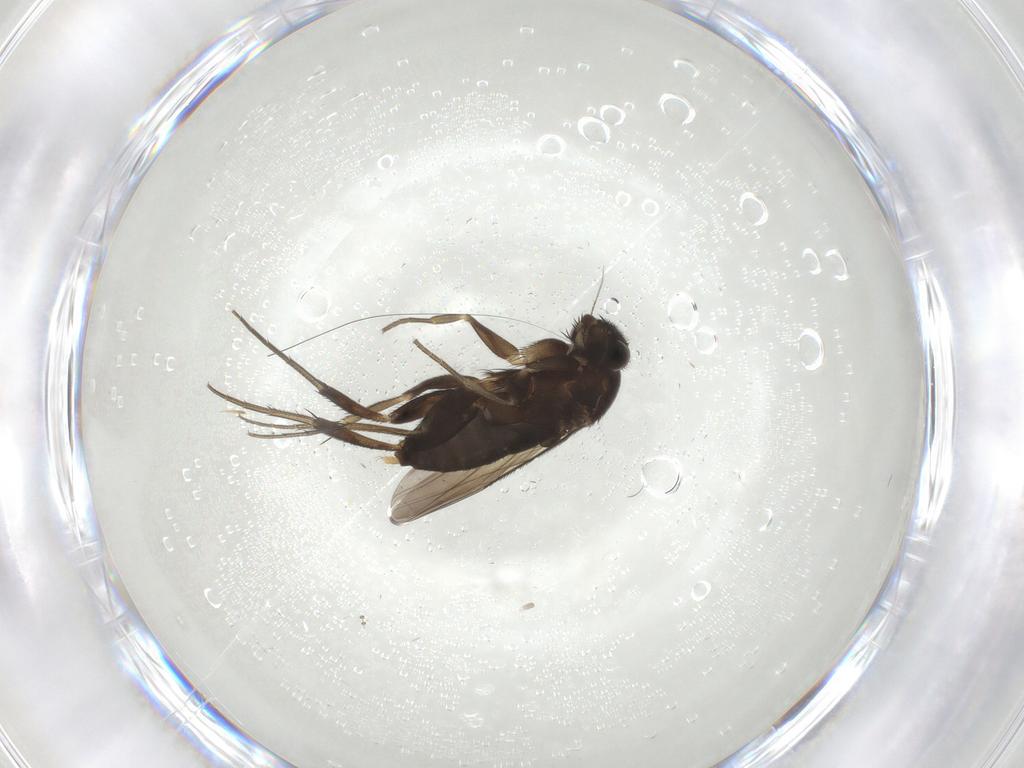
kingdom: Animalia
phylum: Arthropoda
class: Insecta
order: Diptera
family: Phoridae
